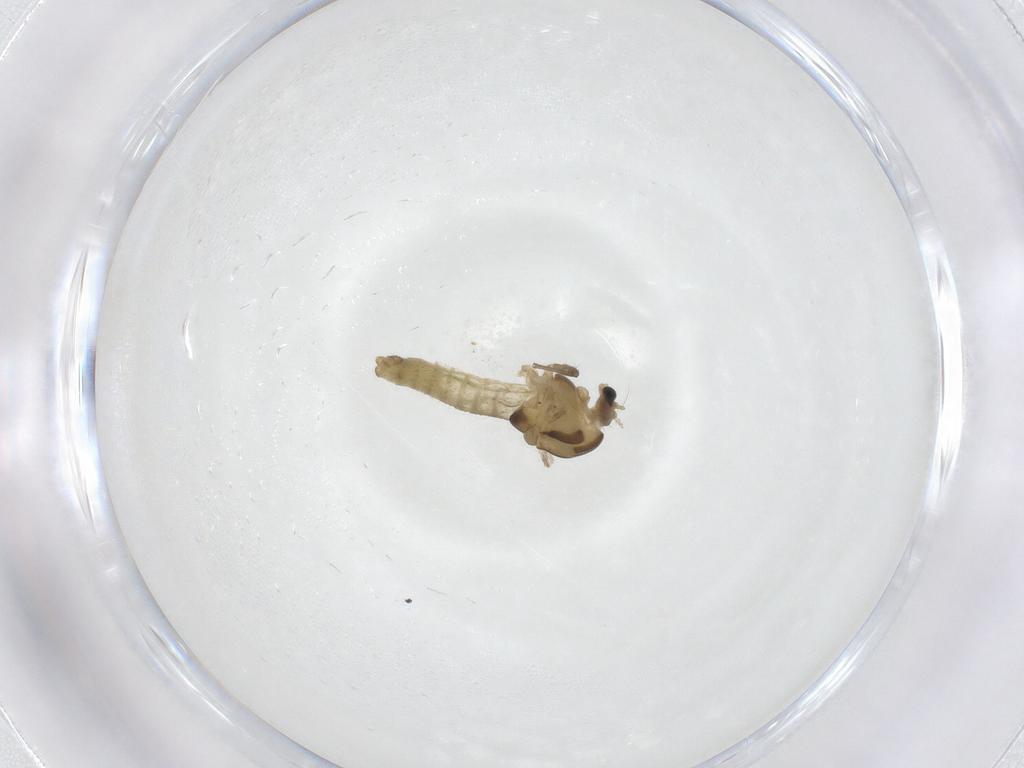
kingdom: Animalia
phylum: Arthropoda
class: Insecta
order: Diptera
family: Chironomidae
